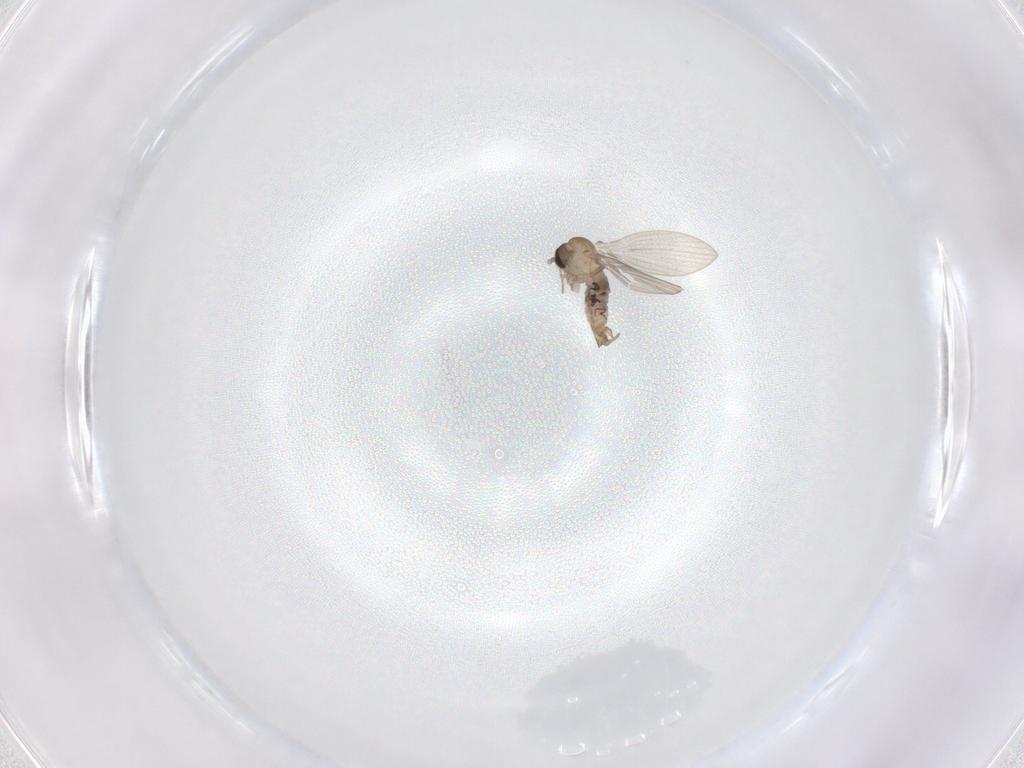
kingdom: Animalia
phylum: Arthropoda
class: Insecta
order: Diptera
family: Psychodidae
